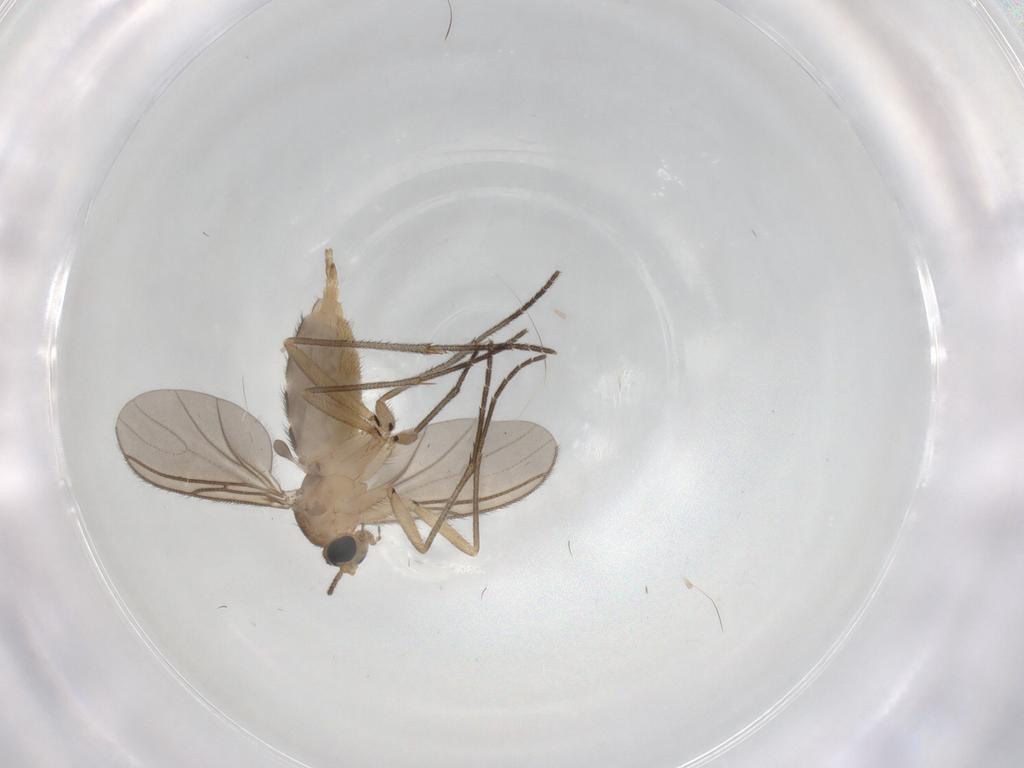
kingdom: Animalia
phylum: Arthropoda
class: Insecta
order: Diptera
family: Sciaridae
